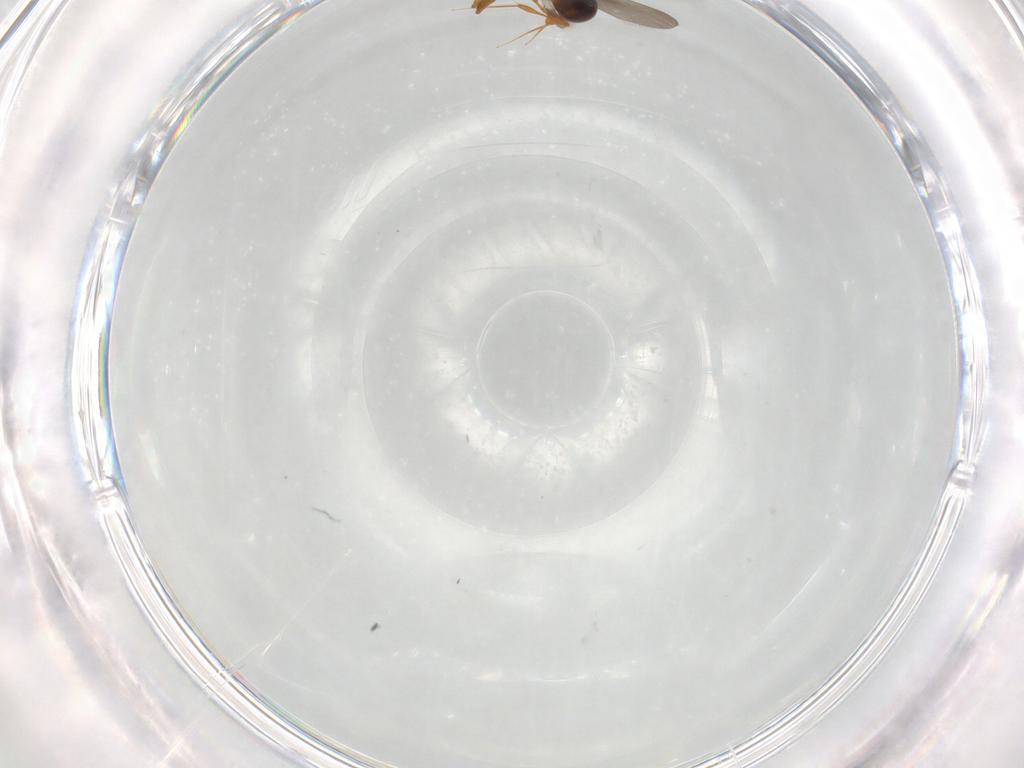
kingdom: Animalia
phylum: Arthropoda
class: Insecta
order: Hymenoptera
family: Platygastridae
